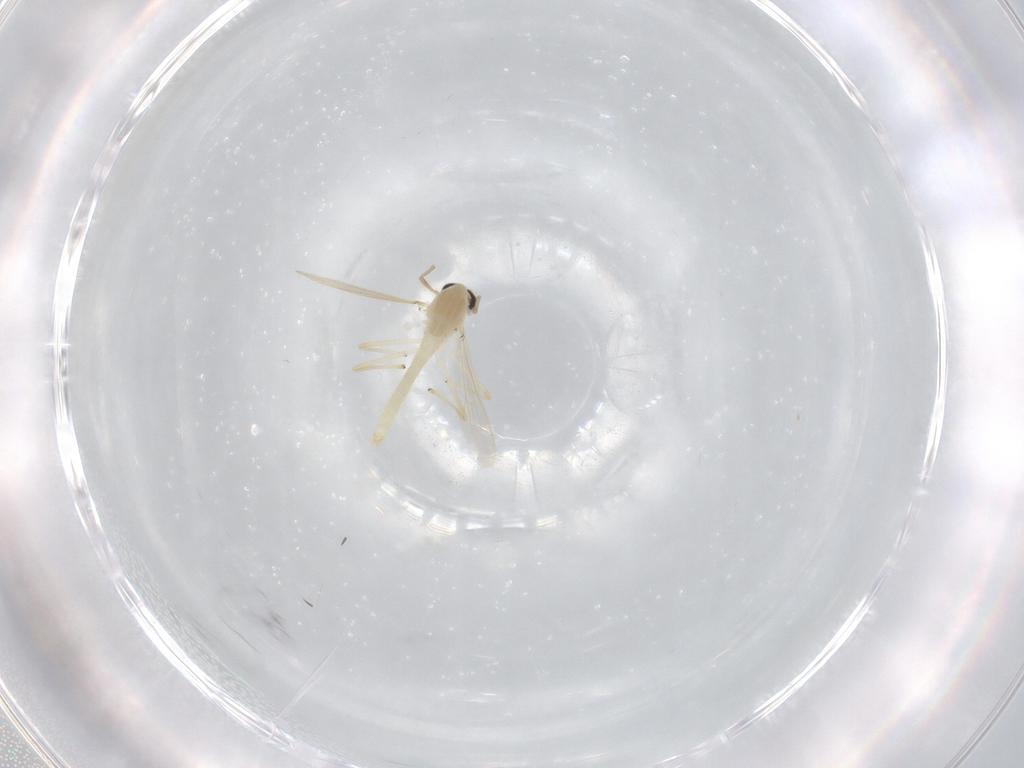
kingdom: Animalia
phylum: Arthropoda
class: Insecta
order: Diptera
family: Chironomidae
